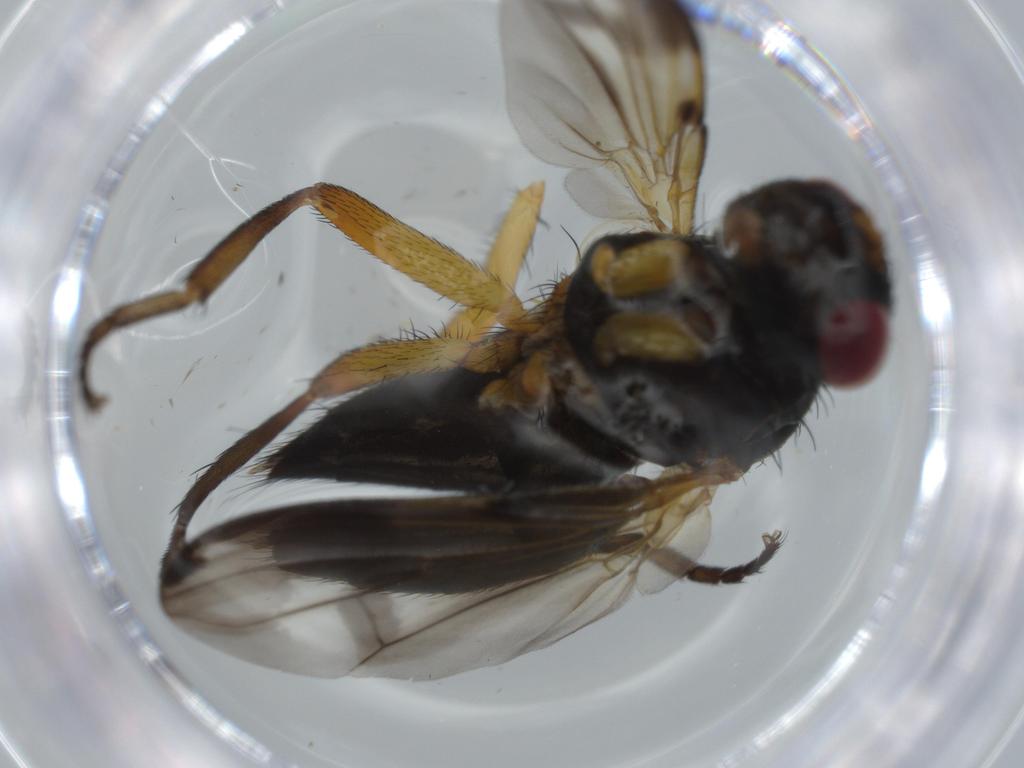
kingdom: Animalia
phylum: Arthropoda
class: Insecta
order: Diptera
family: Calliphoridae
